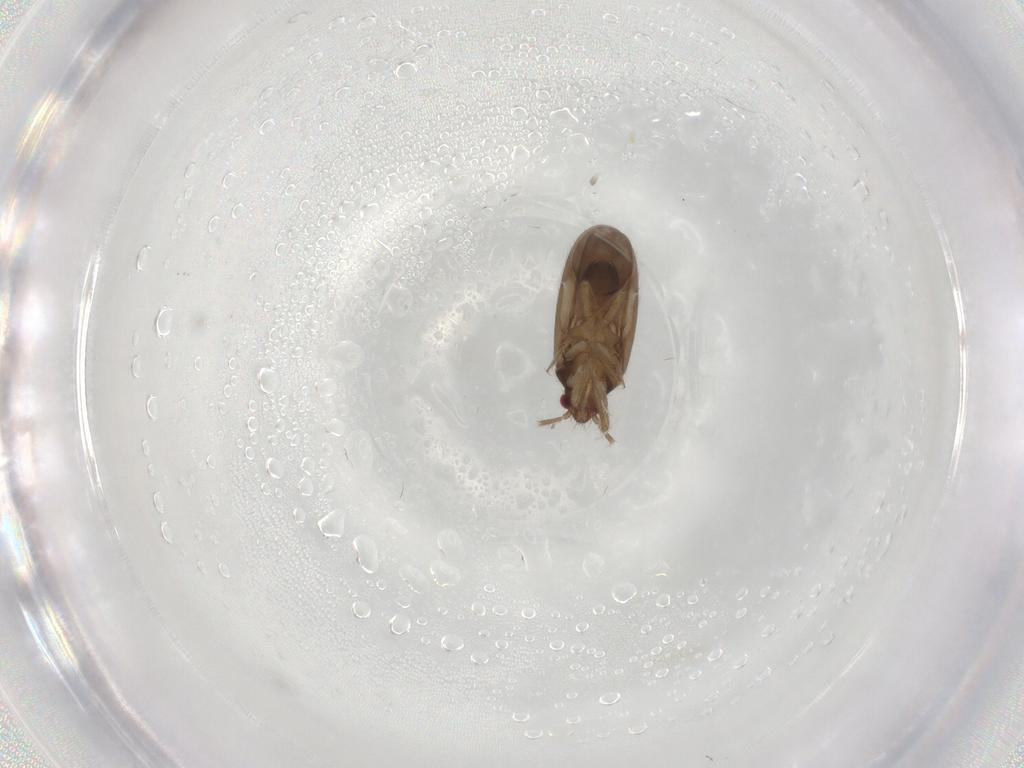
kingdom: Animalia
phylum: Arthropoda
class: Insecta
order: Hemiptera
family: Ceratocombidae
